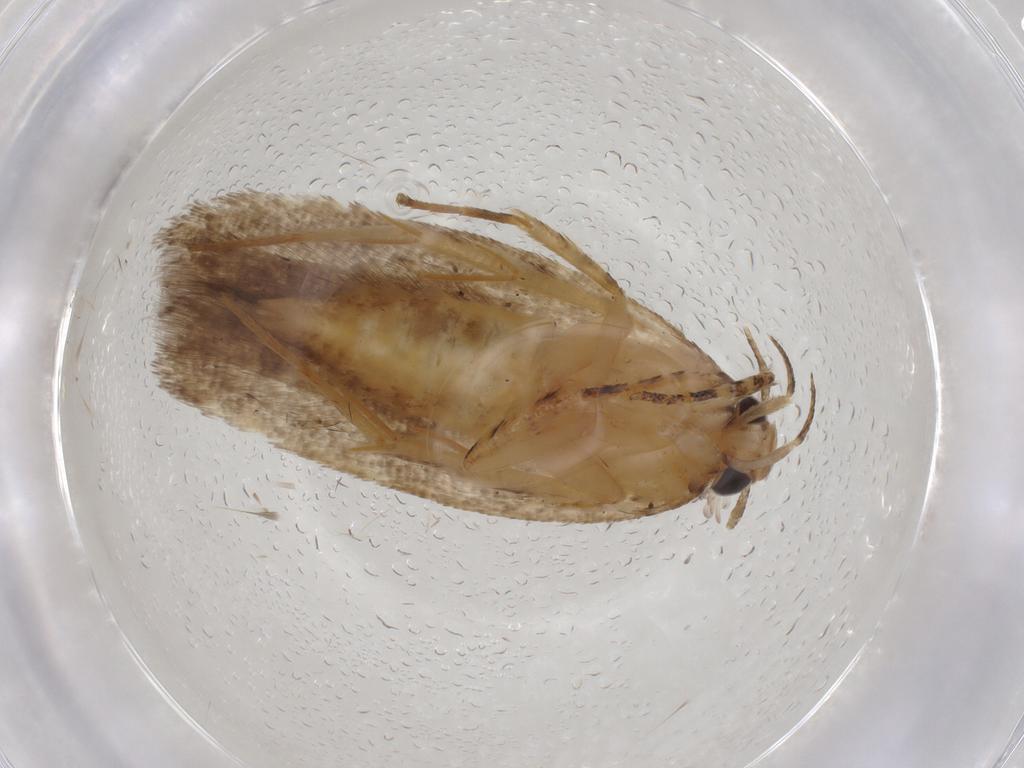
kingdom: Animalia
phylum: Arthropoda
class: Insecta
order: Lepidoptera
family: Gelechiidae
